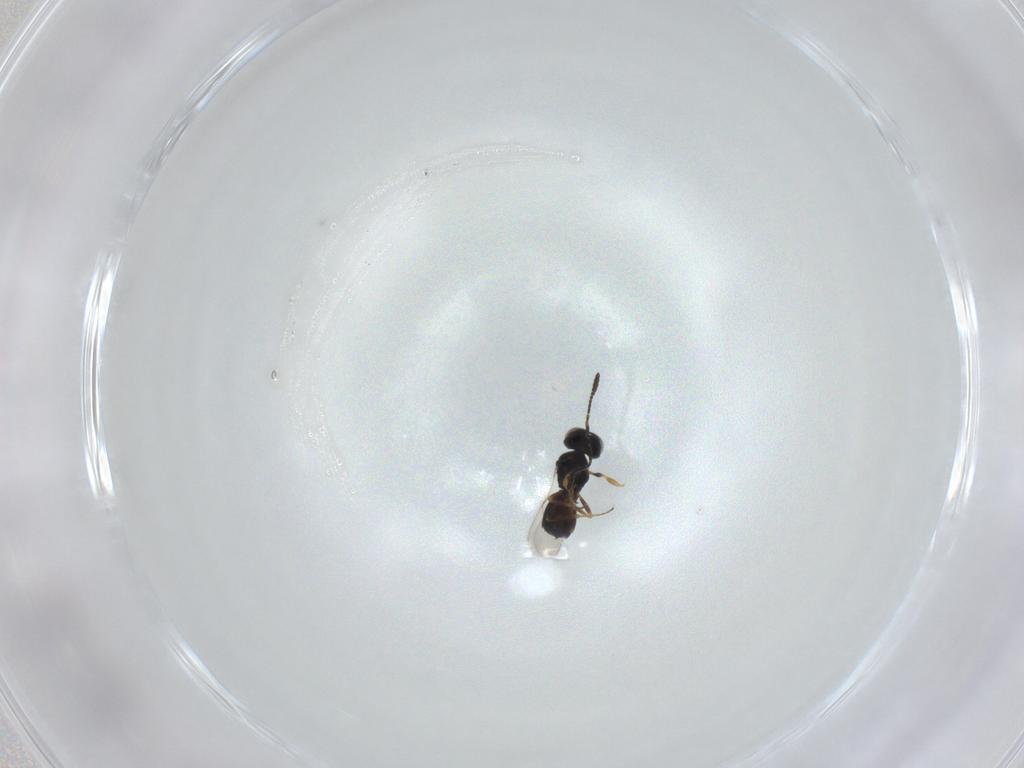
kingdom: Animalia
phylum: Arthropoda
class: Insecta
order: Hymenoptera
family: Scelionidae
